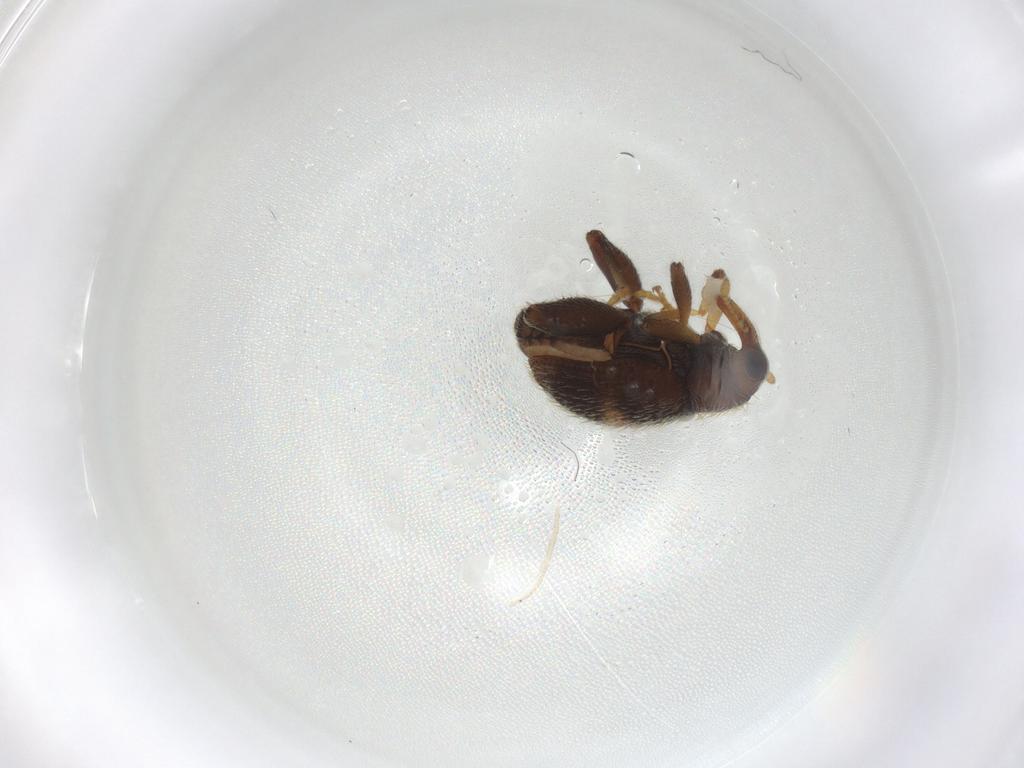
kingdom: Animalia
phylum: Arthropoda
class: Insecta
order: Coleoptera
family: Curculionidae
